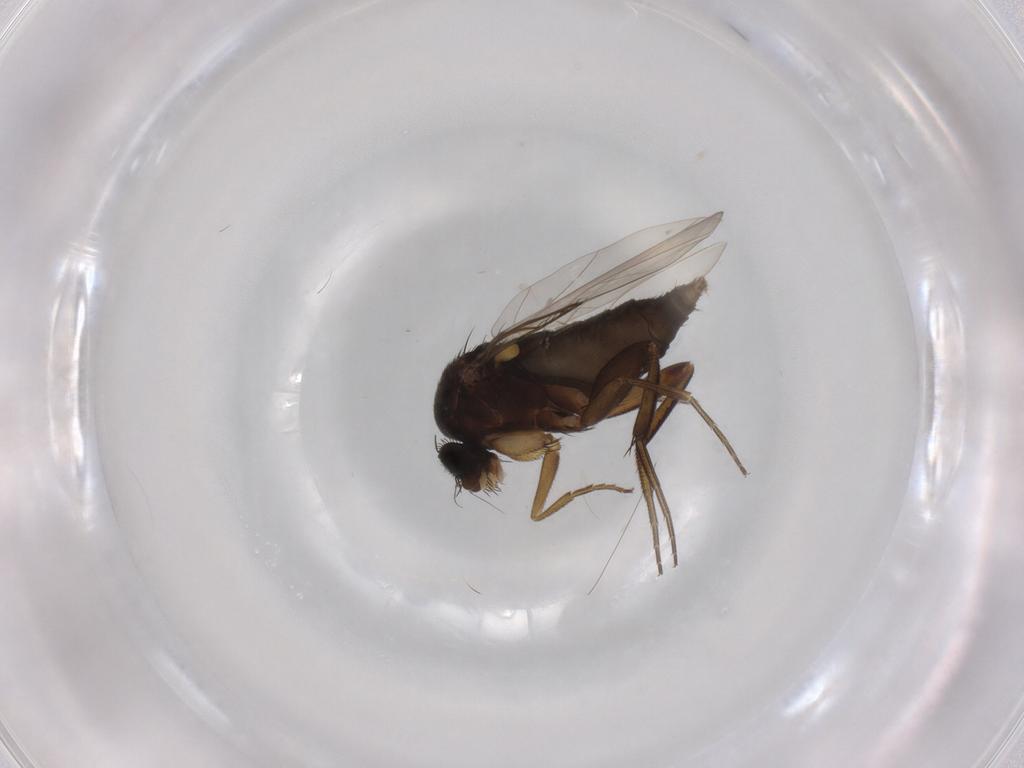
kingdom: Animalia
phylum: Arthropoda
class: Insecta
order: Diptera
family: Phoridae
